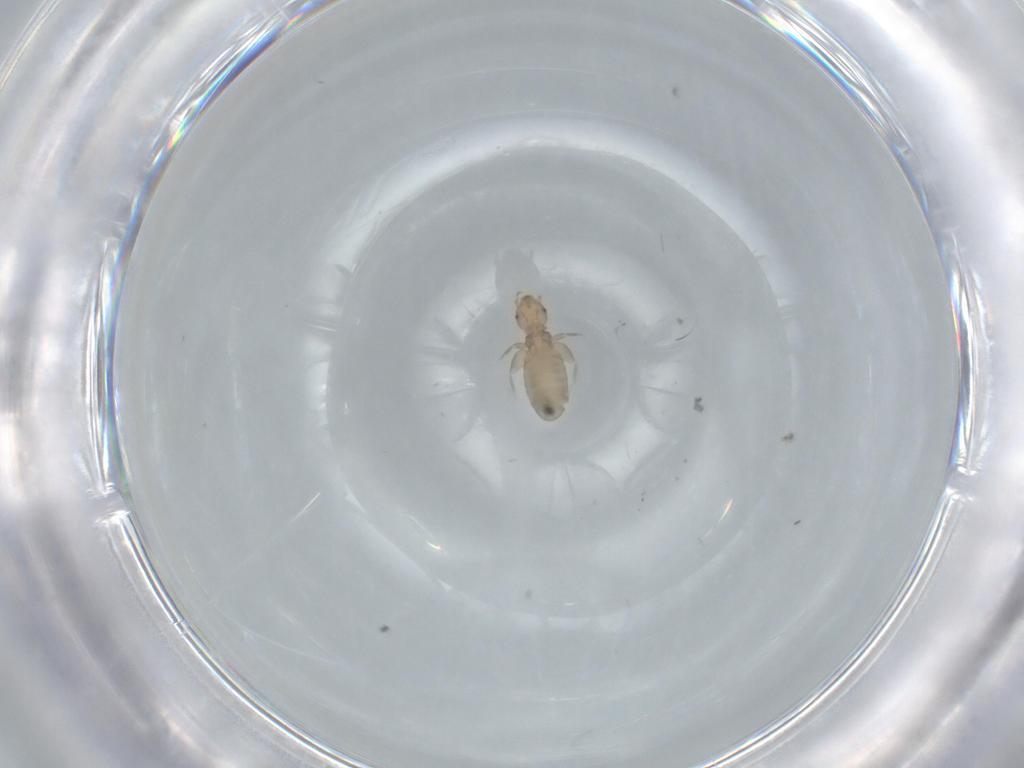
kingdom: Animalia
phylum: Arthropoda
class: Insecta
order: Psocodea
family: Liposcelididae
